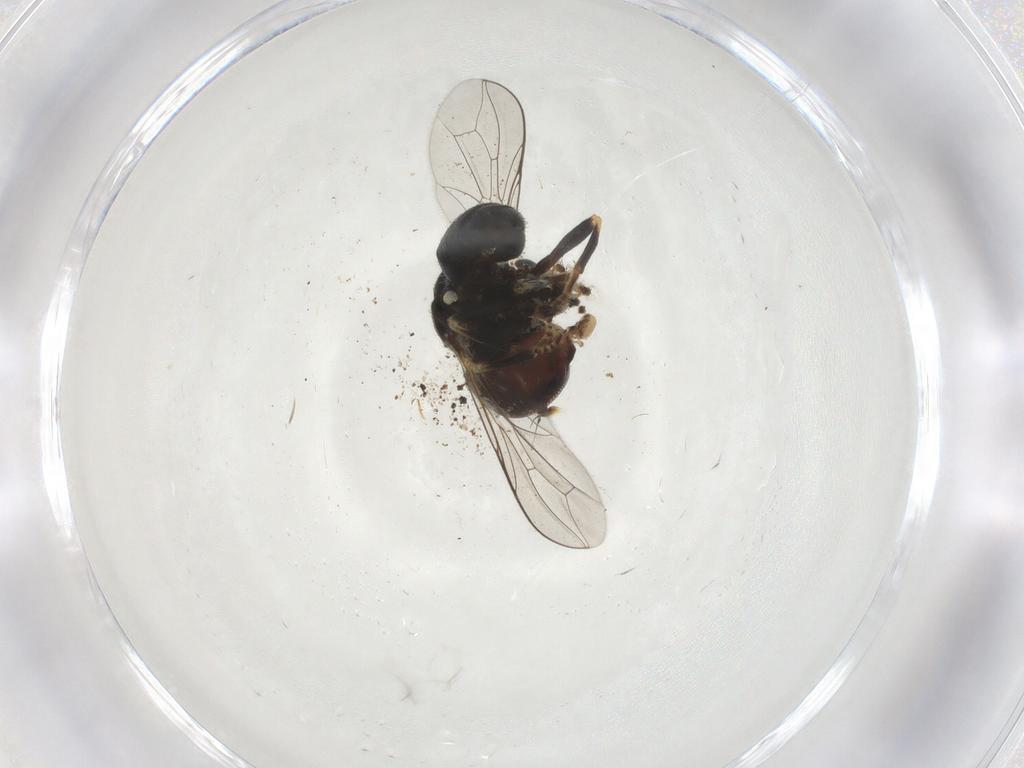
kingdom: Animalia
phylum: Arthropoda
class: Insecta
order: Diptera
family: Pipunculidae
